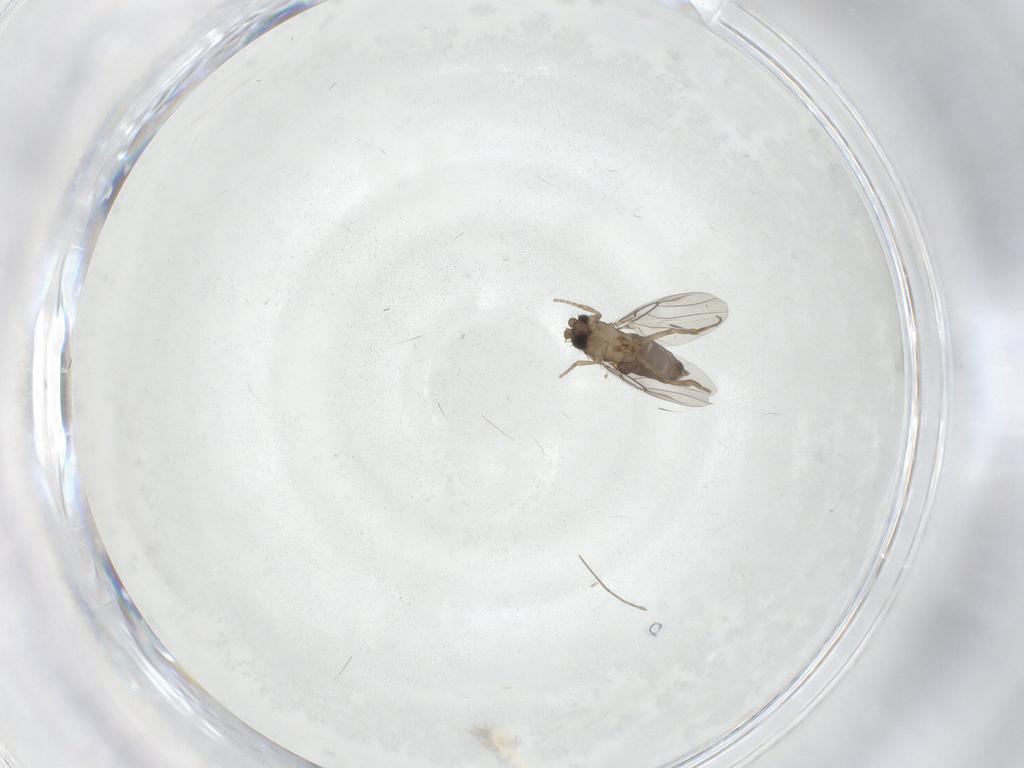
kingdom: Animalia
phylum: Arthropoda
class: Insecta
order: Diptera
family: Phoridae
